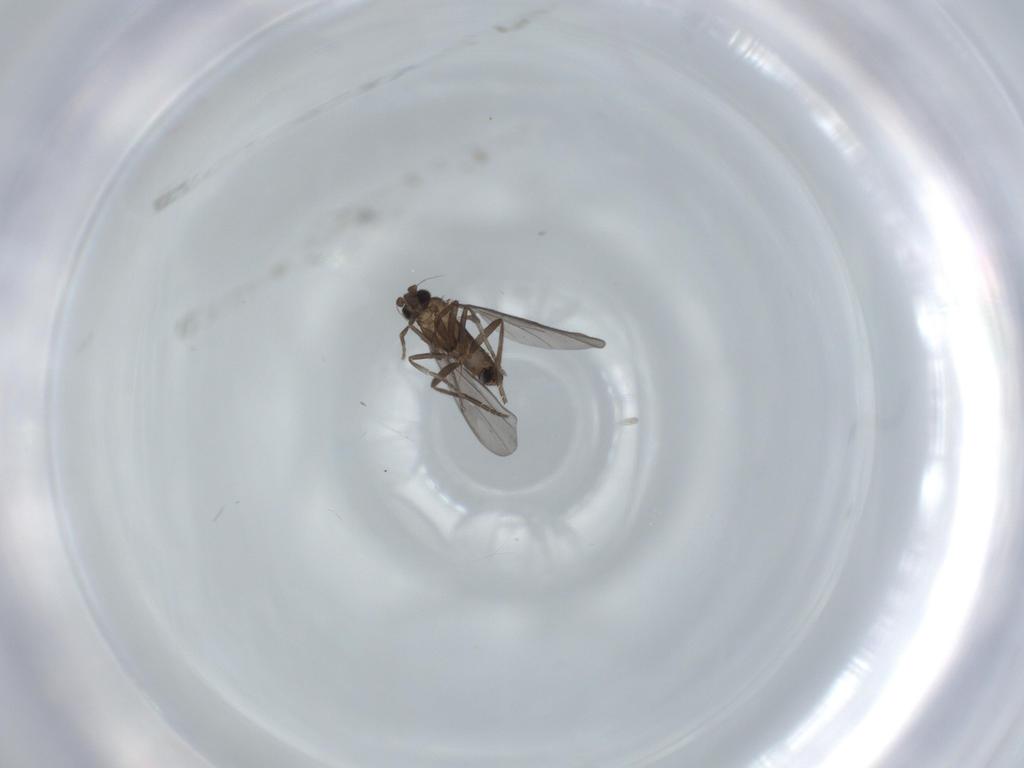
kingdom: Animalia
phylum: Arthropoda
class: Insecta
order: Diptera
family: Phoridae
